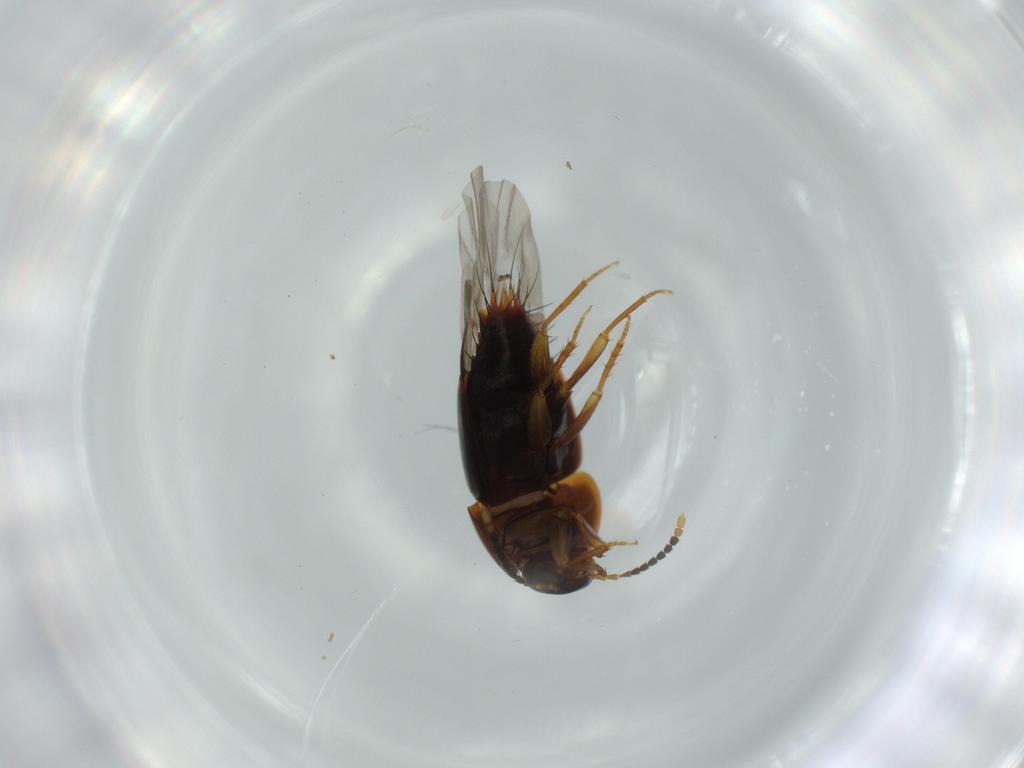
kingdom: Animalia
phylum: Arthropoda
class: Insecta
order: Coleoptera
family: Staphylinidae
